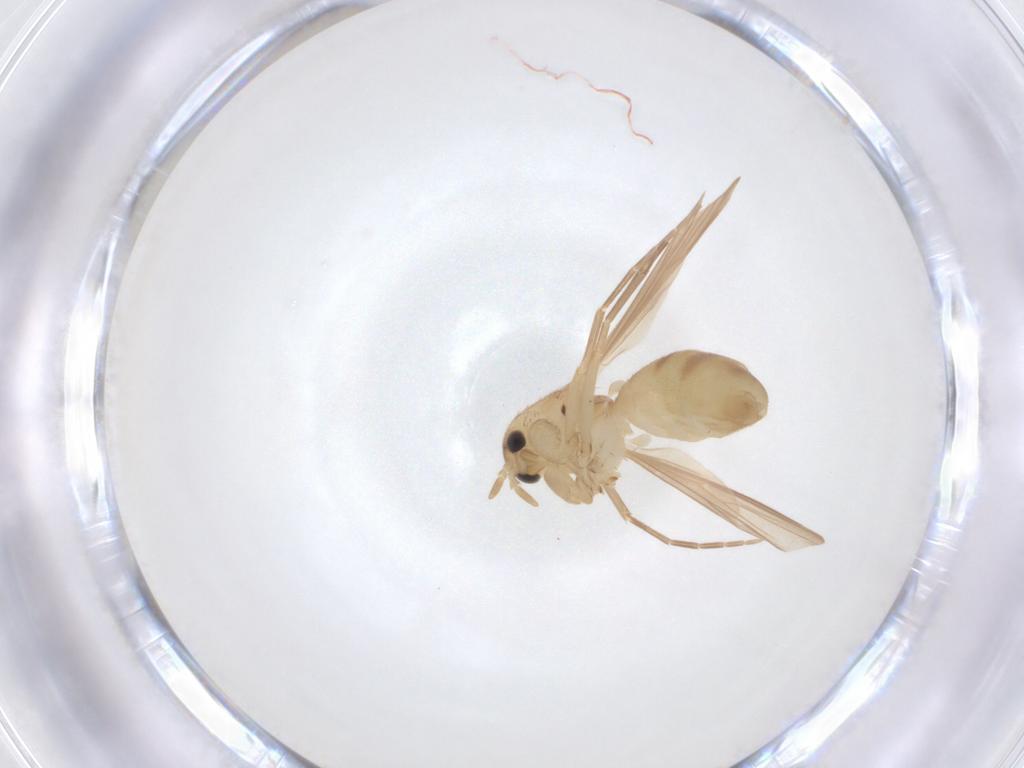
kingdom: Animalia
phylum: Arthropoda
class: Insecta
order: Diptera
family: Mycetophilidae
